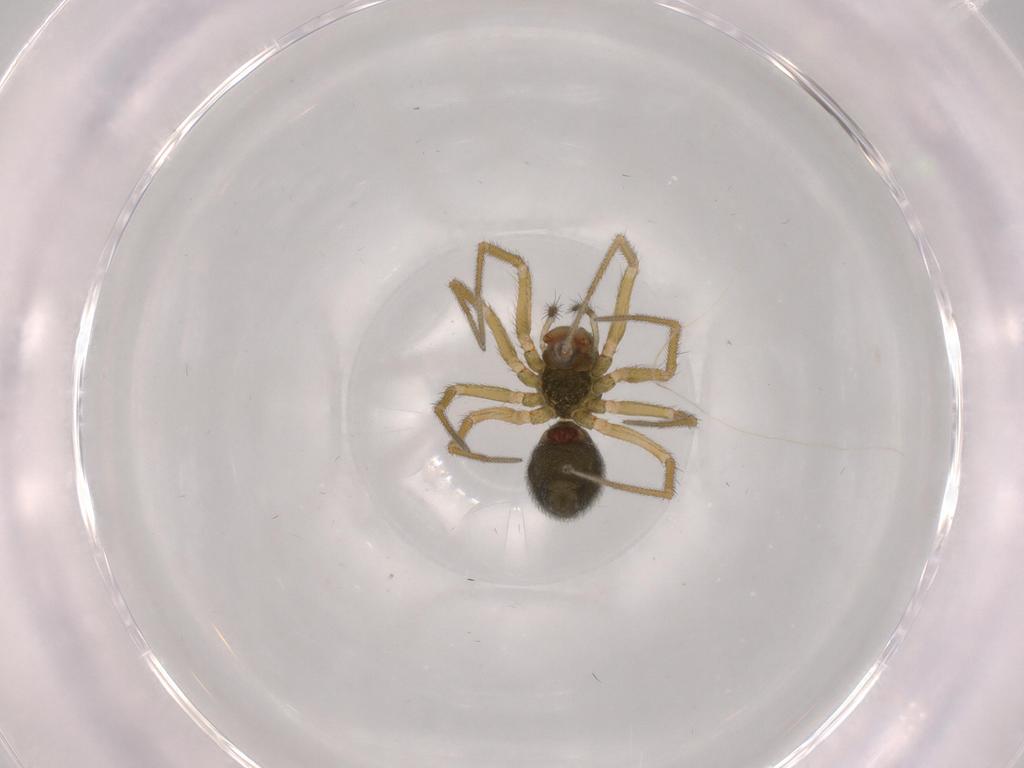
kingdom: Animalia
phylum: Arthropoda
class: Arachnida
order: Araneae
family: Linyphiidae
